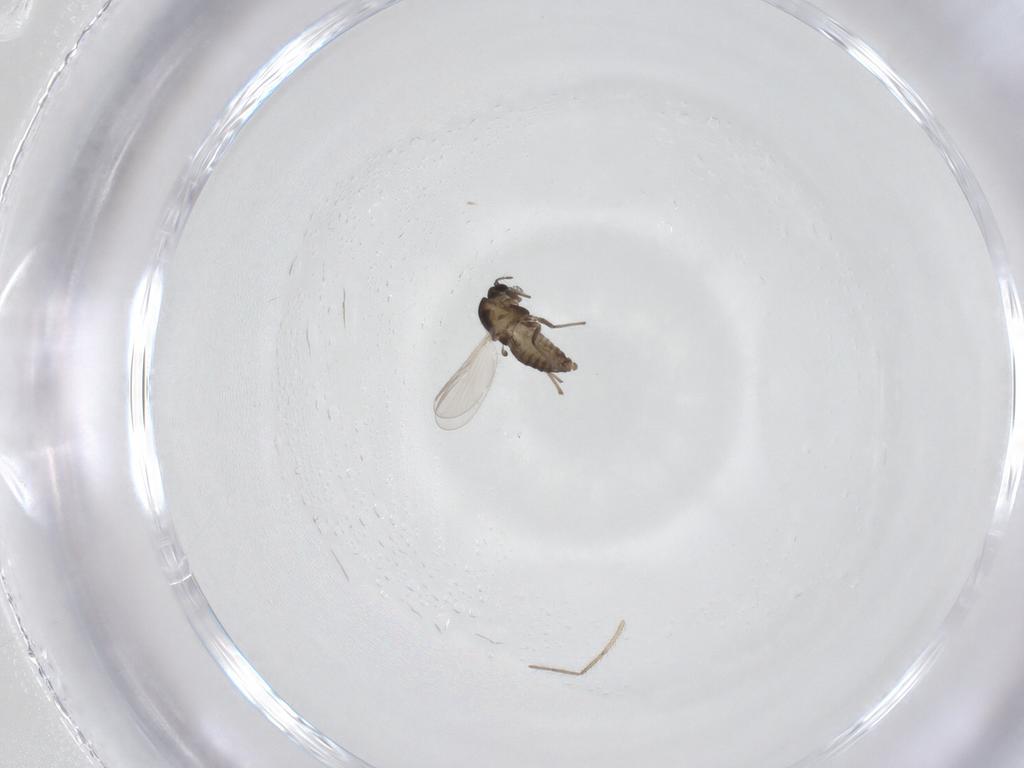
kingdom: Animalia
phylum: Arthropoda
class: Insecta
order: Diptera
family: Chironomidae
